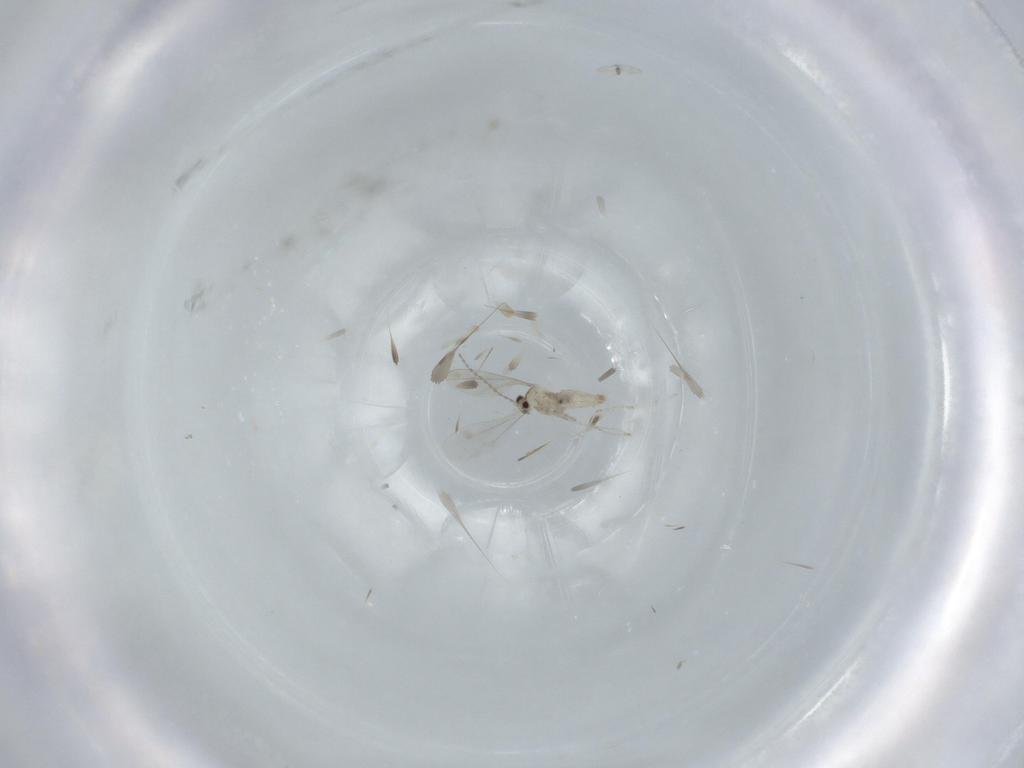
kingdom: Animalia
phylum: Arthropoda
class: Insecta
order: Diptera
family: Cecidomyiidae
